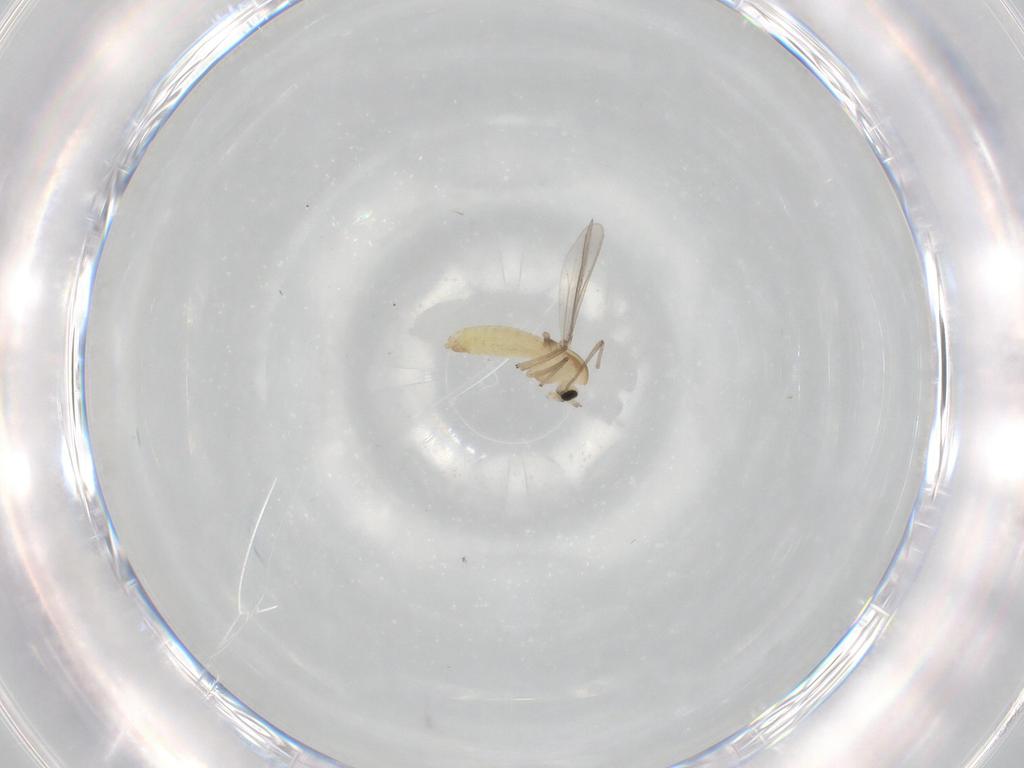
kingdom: Animalia
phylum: Arthropoda
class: Insecta
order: Diptera
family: Chironomidae
